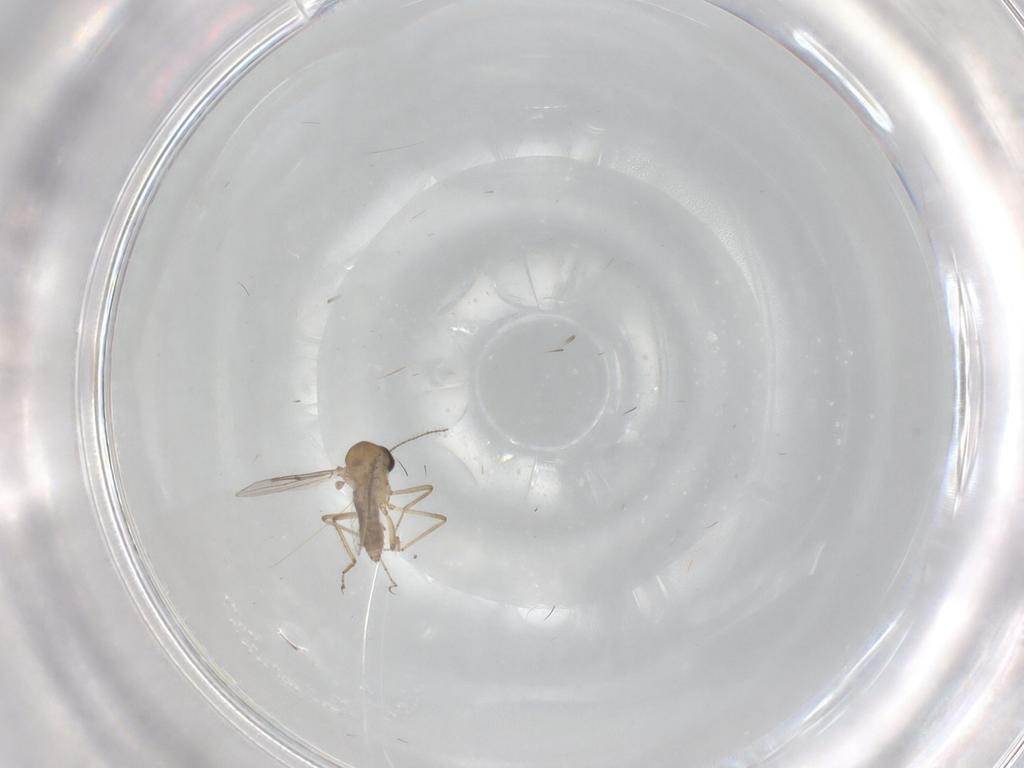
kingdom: Animalia
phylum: Arthropoda
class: Insecta
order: Diptera
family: Ceratopogonidae
